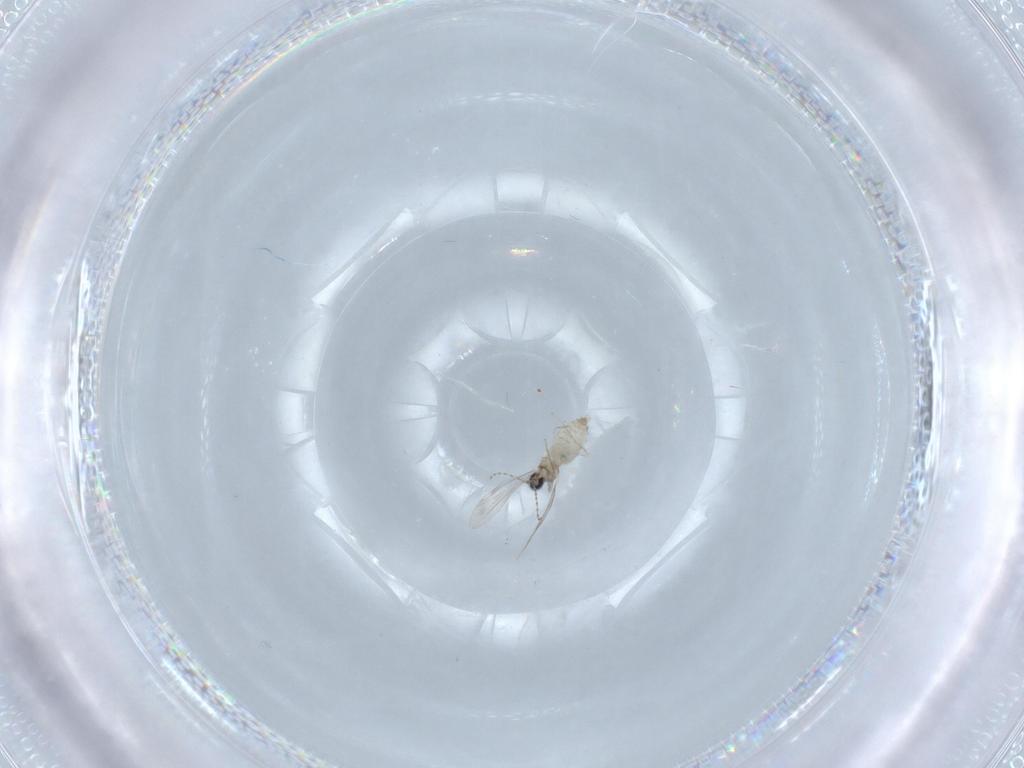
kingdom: Animalia
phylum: Arthropoda
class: Insecta
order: Diptera
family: Cecidomyiidae
